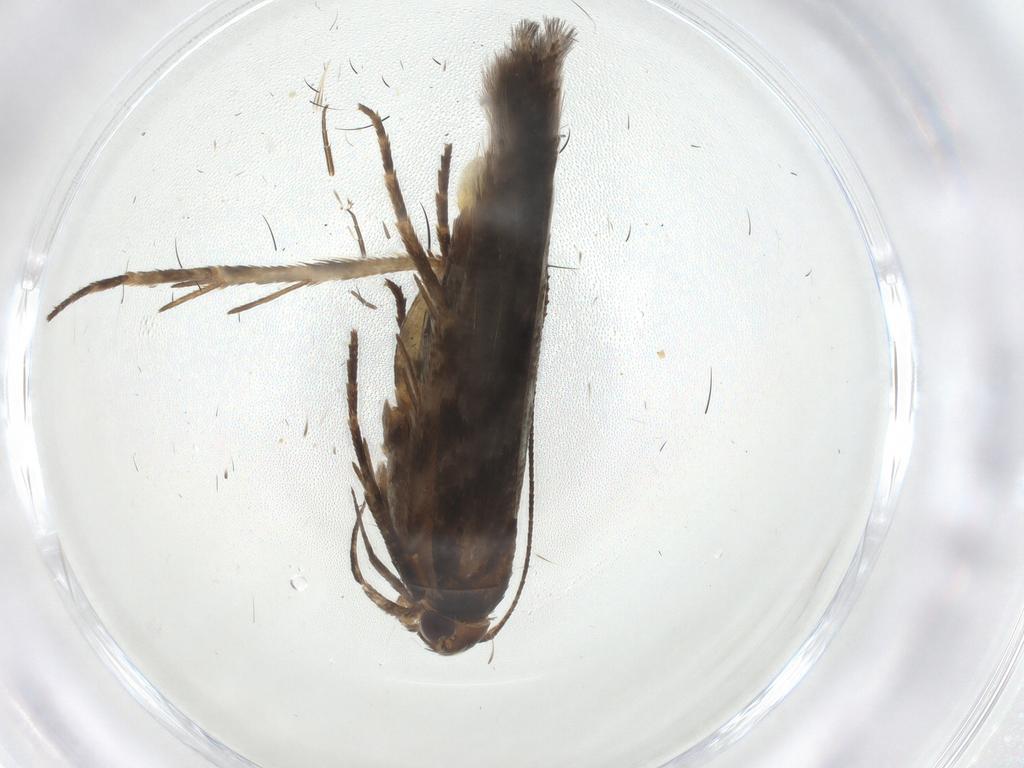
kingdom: Animalia
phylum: Arthropoda
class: Insecta
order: Lepidoptera
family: Gelechiidae
